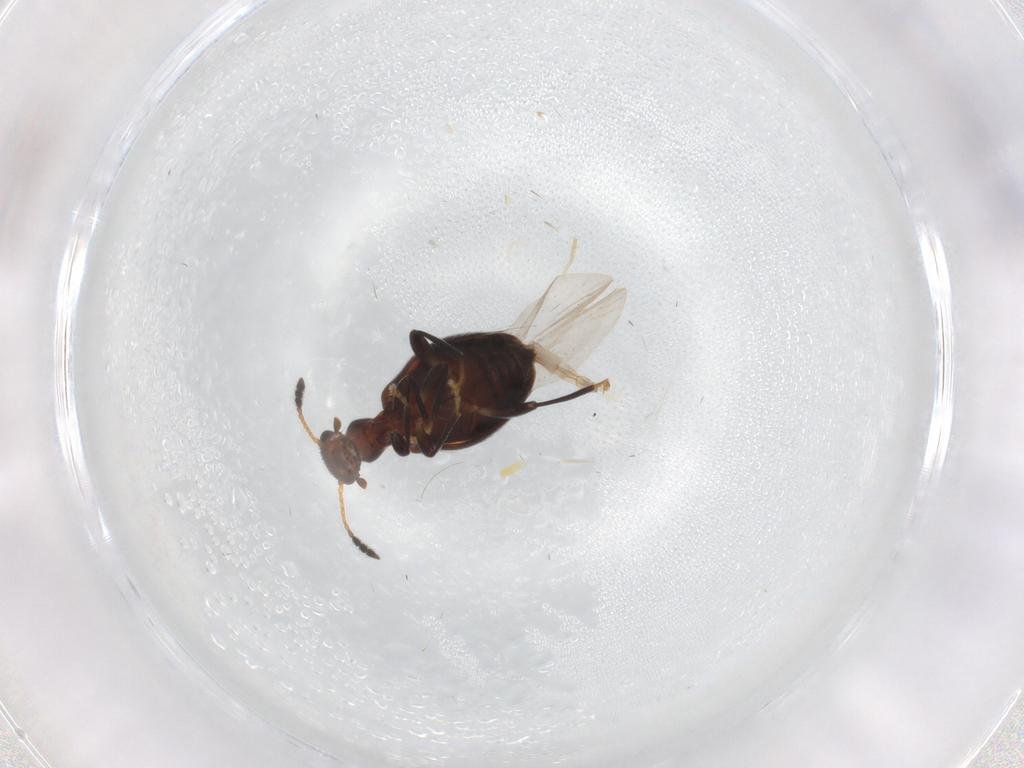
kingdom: Animalia
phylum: Arthropoda
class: Insecta
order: Coleoptera
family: Anthicidae
